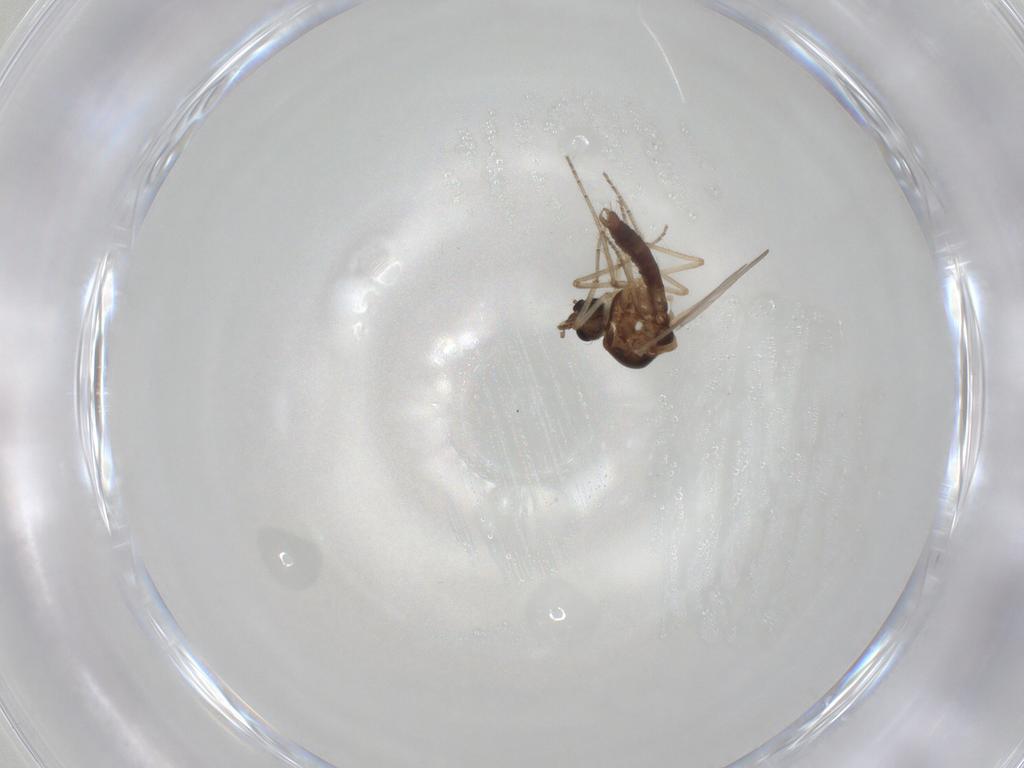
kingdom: Animalia
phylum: Arthropoda
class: Insecta
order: Diptera
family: Ceratopogonidae
